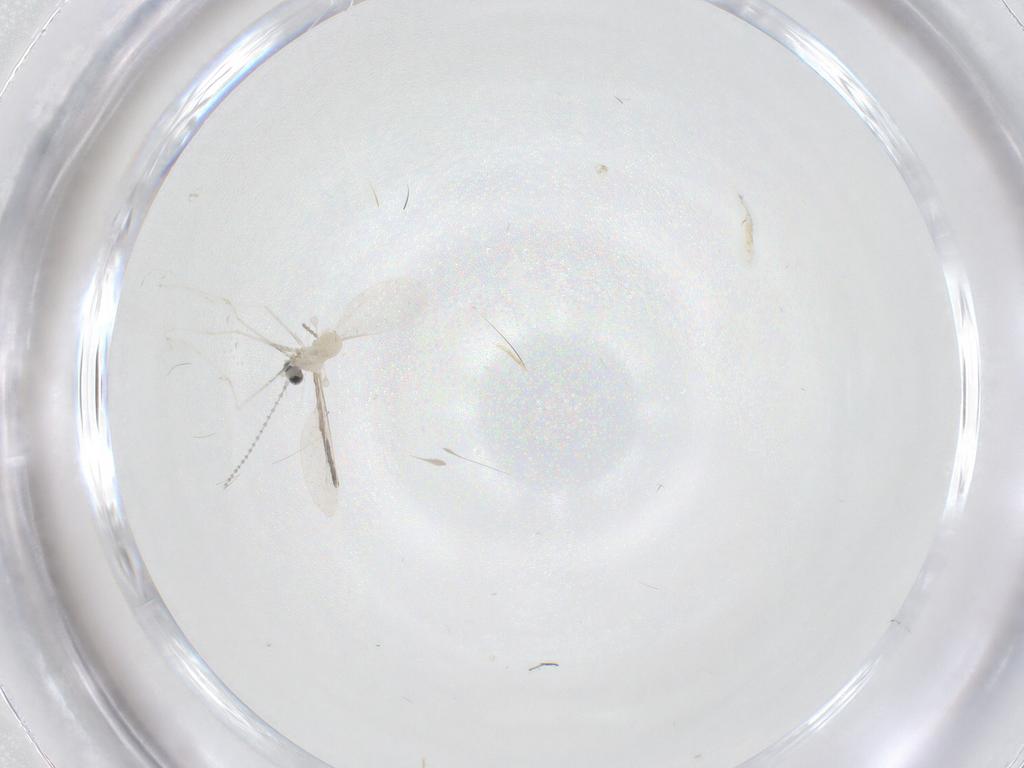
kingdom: Animalia
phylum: Arthropoda
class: Insecta
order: Diptera
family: Cecidomyiidae
